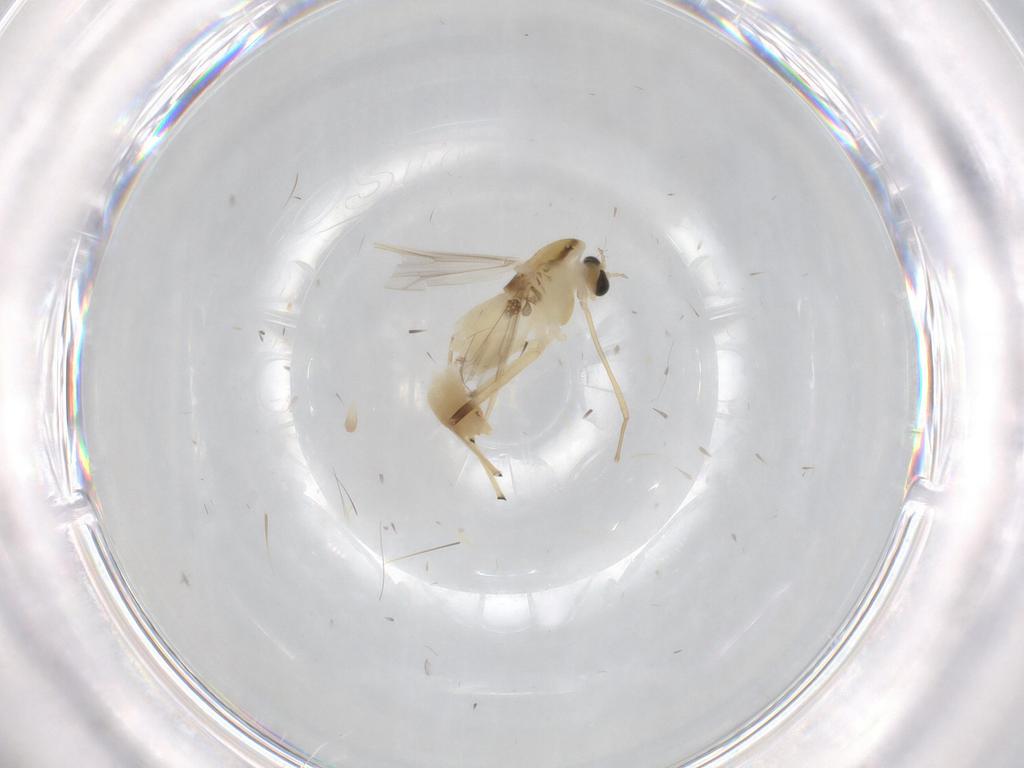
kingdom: Animalia
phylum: Arthropoda
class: Insecta
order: Diptera
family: Chironomidae
